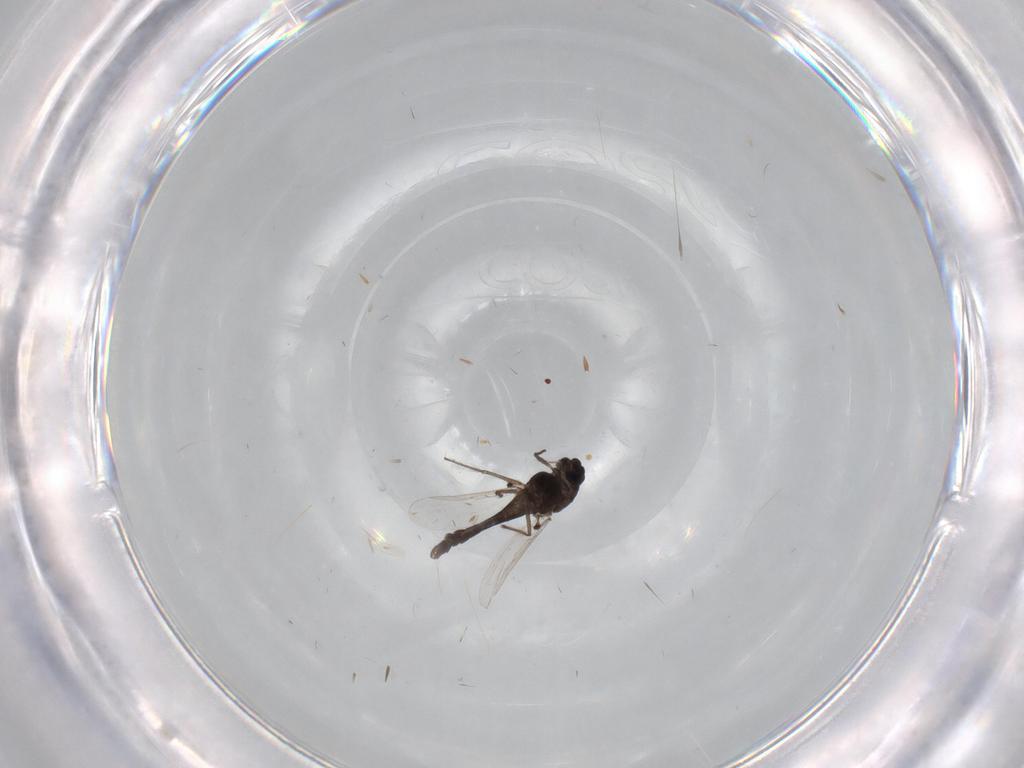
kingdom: Animalia
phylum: Arthropoda
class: Insecta
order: Diptera
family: Chironomidae
